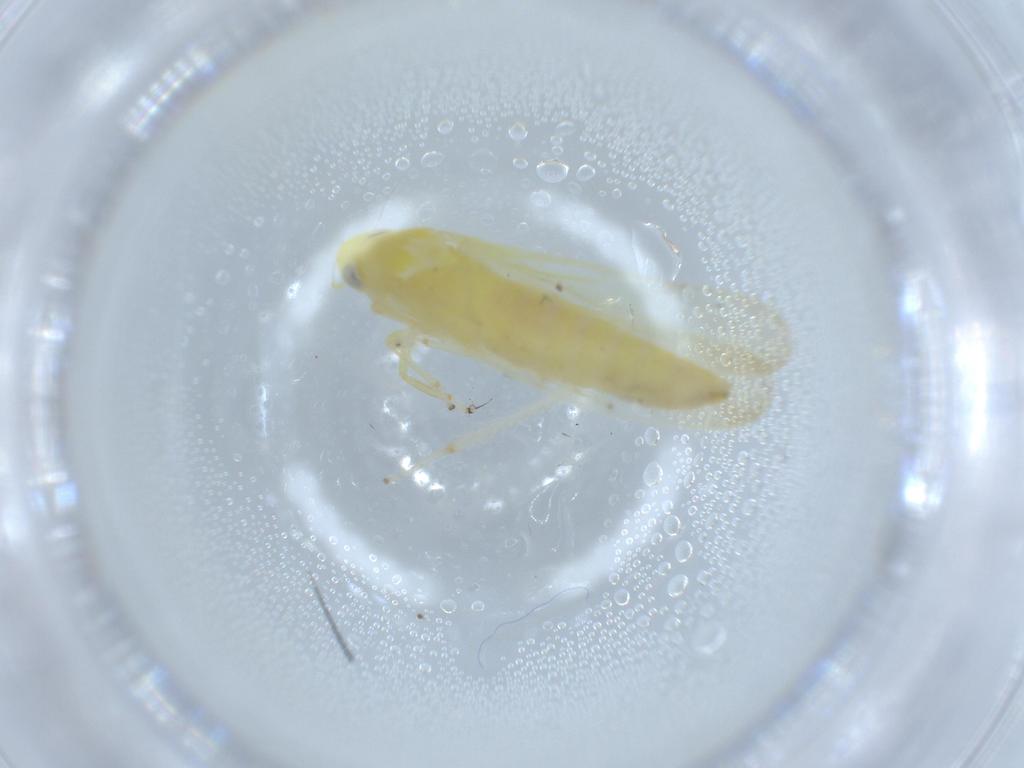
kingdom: Animalia
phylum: Arthropoda
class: Insecta
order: Hemiptera
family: Cicadellidae
